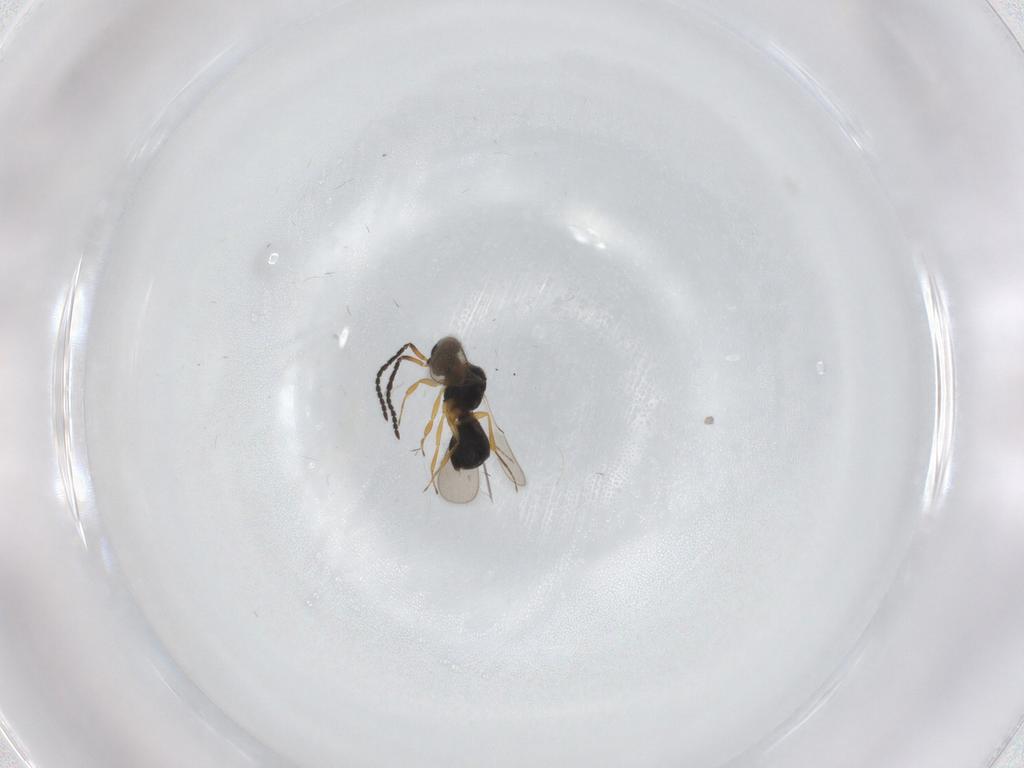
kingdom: Animalia
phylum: Arthropoda
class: Insecta
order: Hymenoptera
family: Scelionidae
